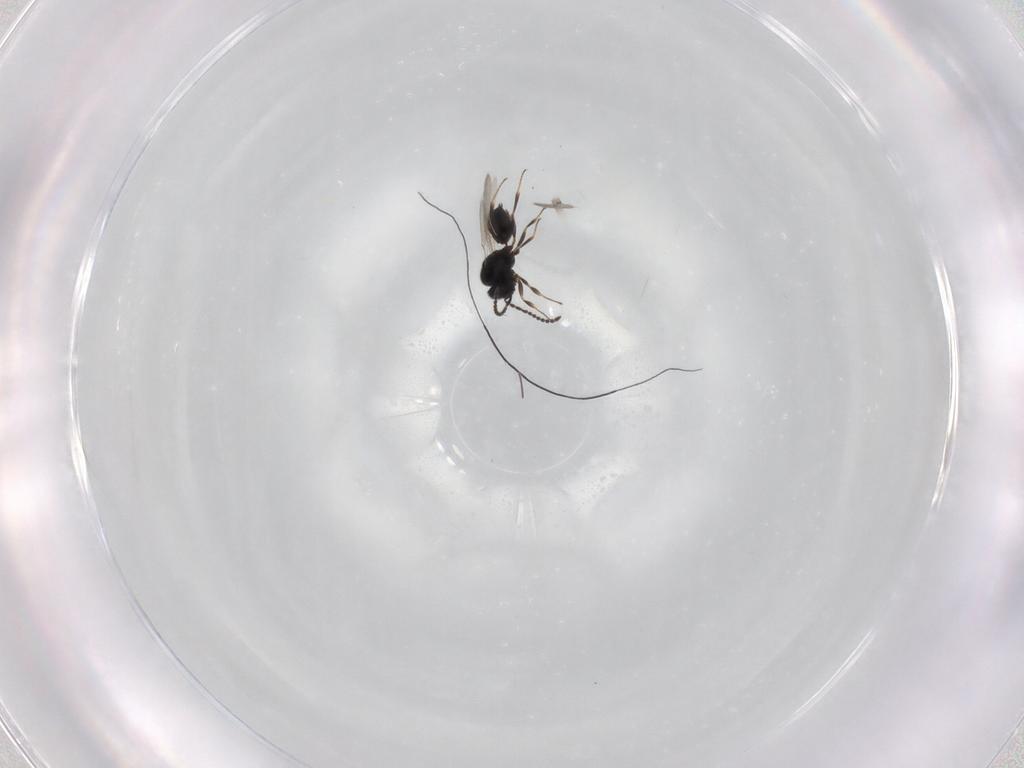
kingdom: Animalia
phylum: Arthropoda
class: Insecta
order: Hymenoptera
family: Scelionidae
